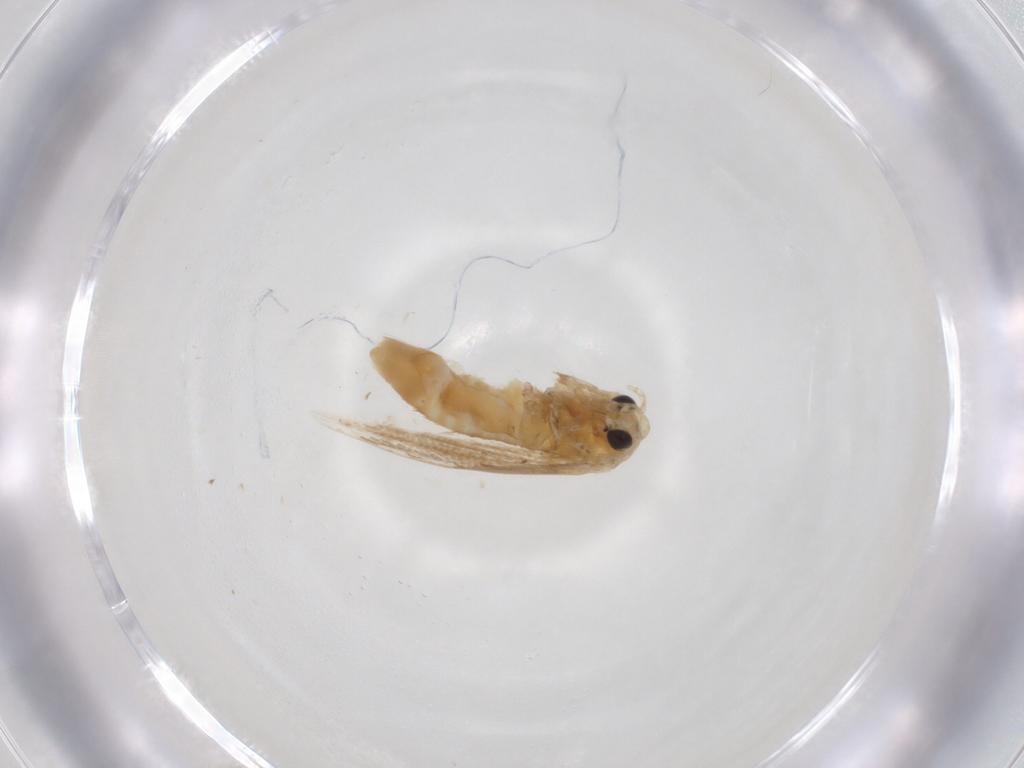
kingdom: Animalia
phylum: Arthropoda
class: Insecta
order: Lepidoptera
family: Noctuidae
